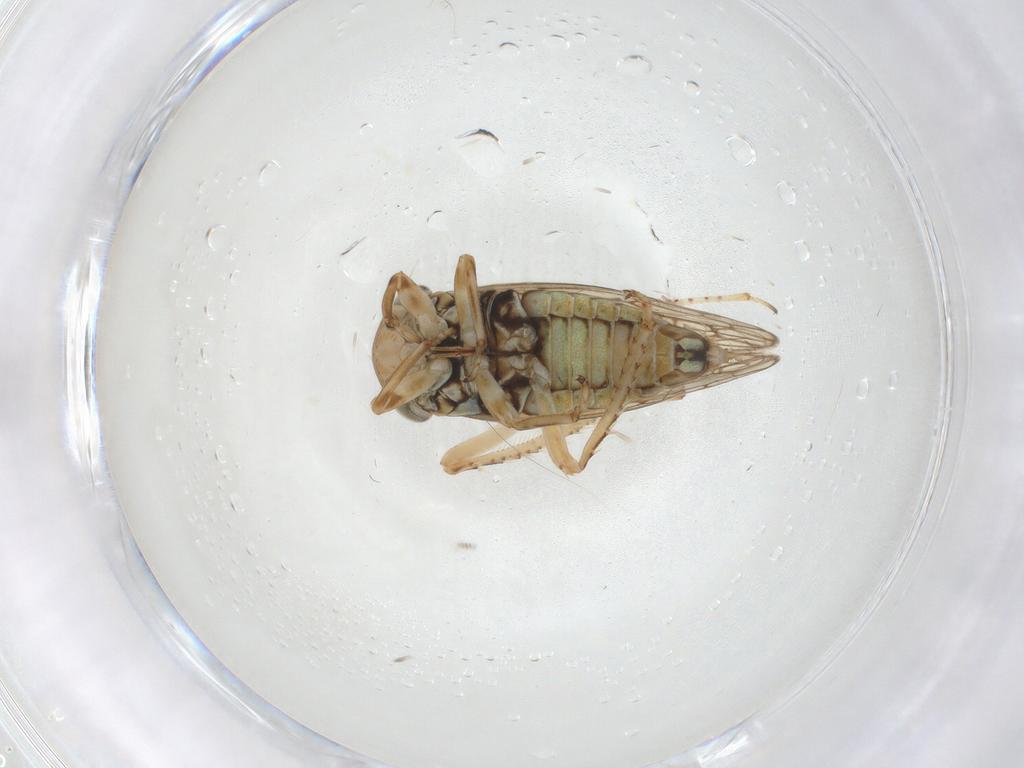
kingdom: Animalia
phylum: Arthropoda
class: Insecta
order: Hemiptera
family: Cicadellidae
